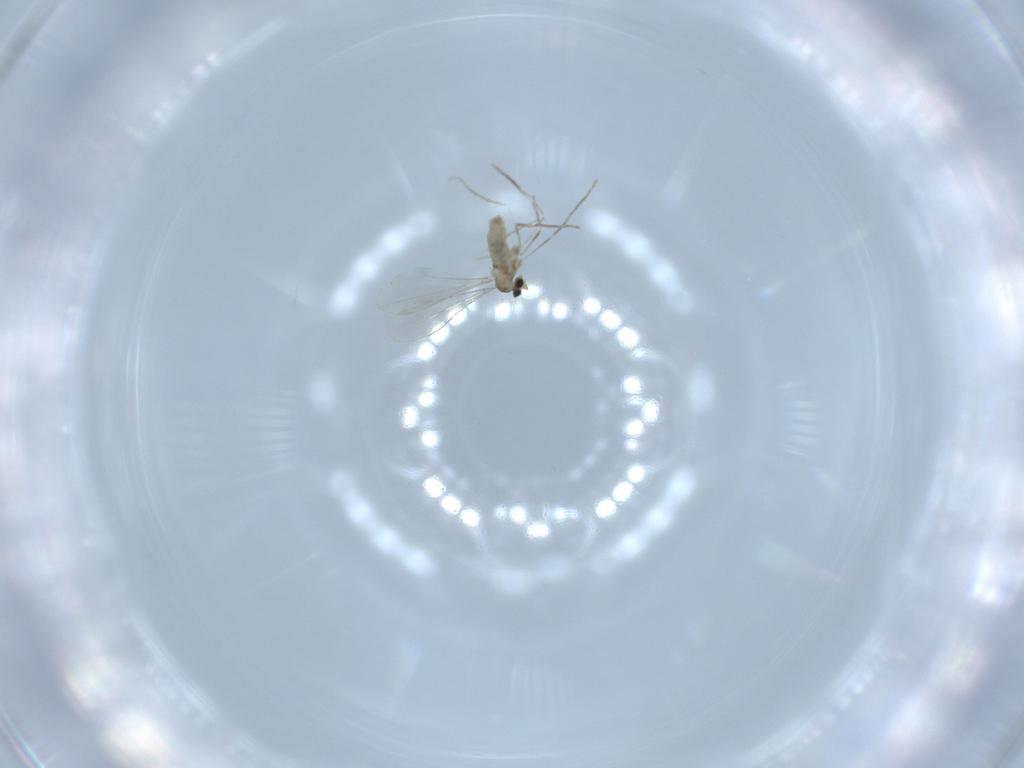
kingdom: Animalia
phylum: Arthropoda
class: Insecta
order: Diptera
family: Cecidomyiidae
